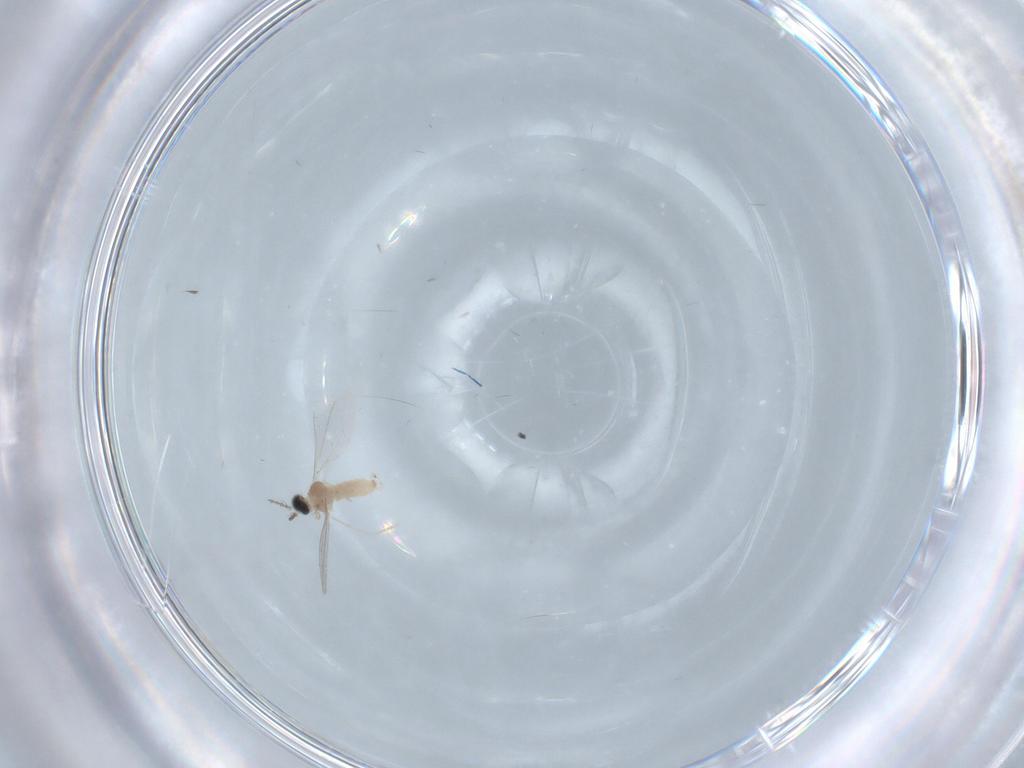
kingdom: Animalia
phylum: Arthropoda
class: Insecta
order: Diptera
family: Cecidomyiidae
